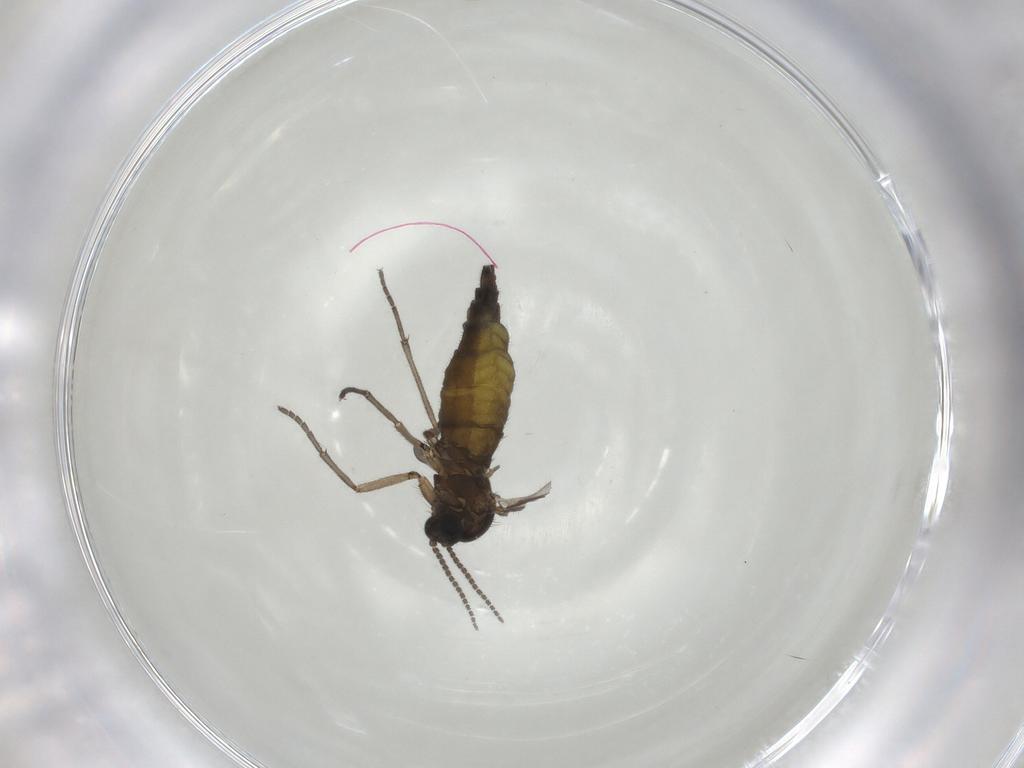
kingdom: Animalia
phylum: Arthropoda
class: Insecta
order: Diptera
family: Sciaridae
